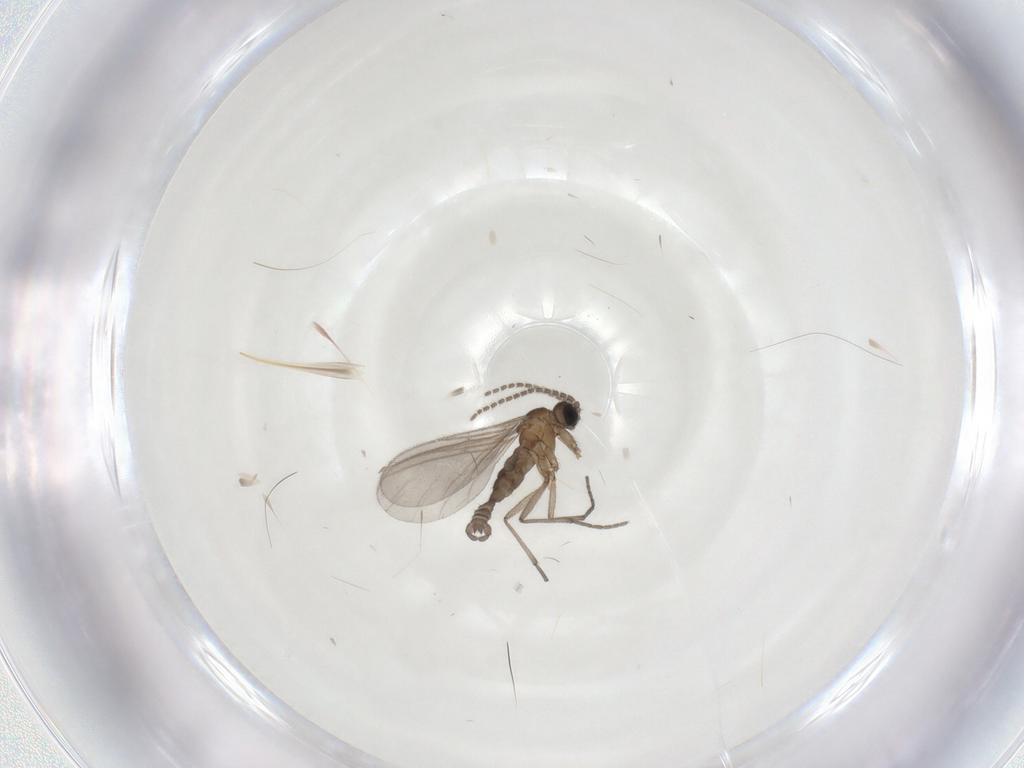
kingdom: Animalia
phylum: Arthropoda
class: Insecta
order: Diptera
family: Sciaridae
